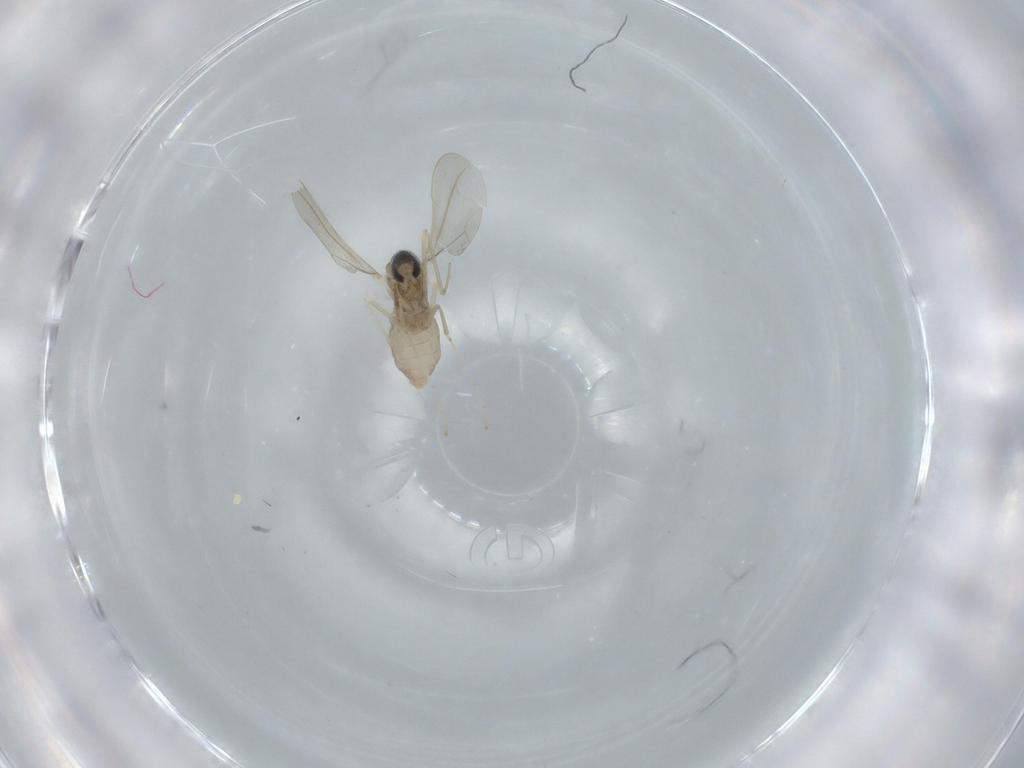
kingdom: Animalia
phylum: Arthropoda
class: Insecta
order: Diptera
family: Cecidomyiidae
